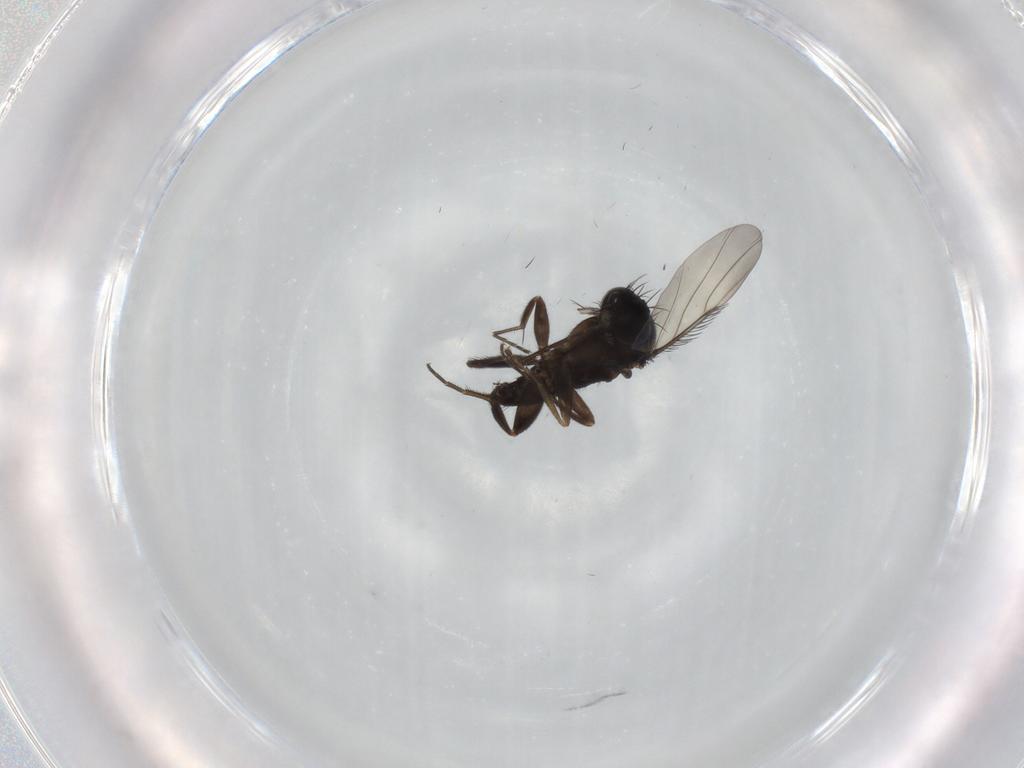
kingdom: Animalia
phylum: Arthropoda
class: Insecta
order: Diptera
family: Phoridae
